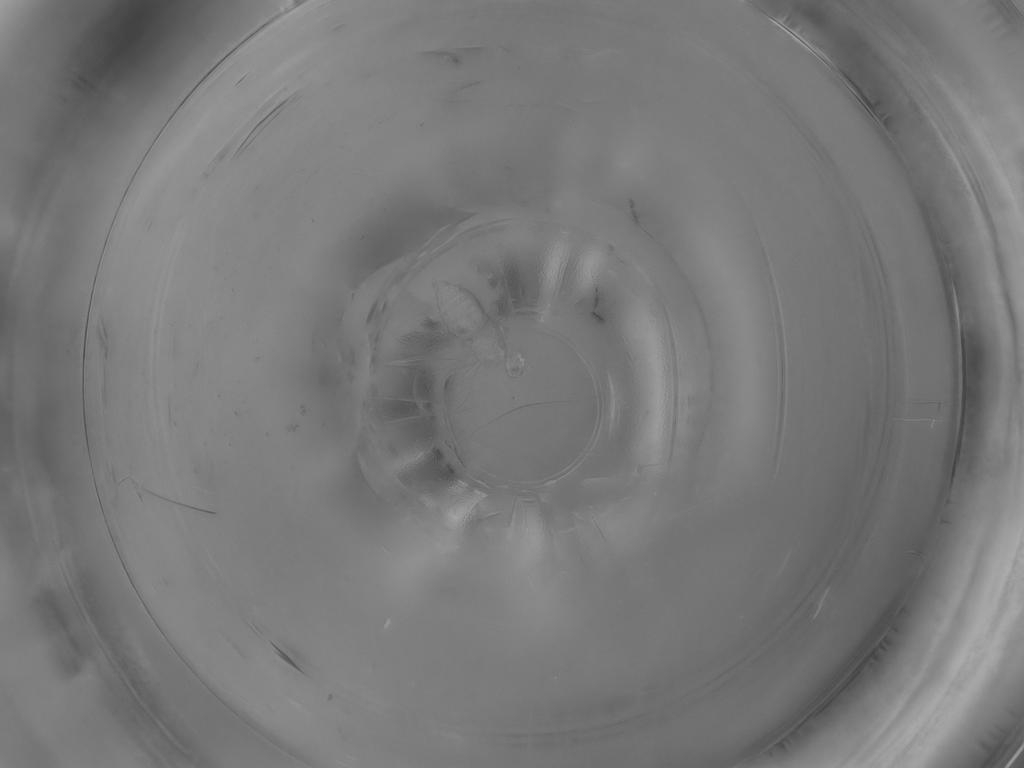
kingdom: Animalia
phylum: Arthropoda
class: Insecta
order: Diptera
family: Cecidomyiidae
